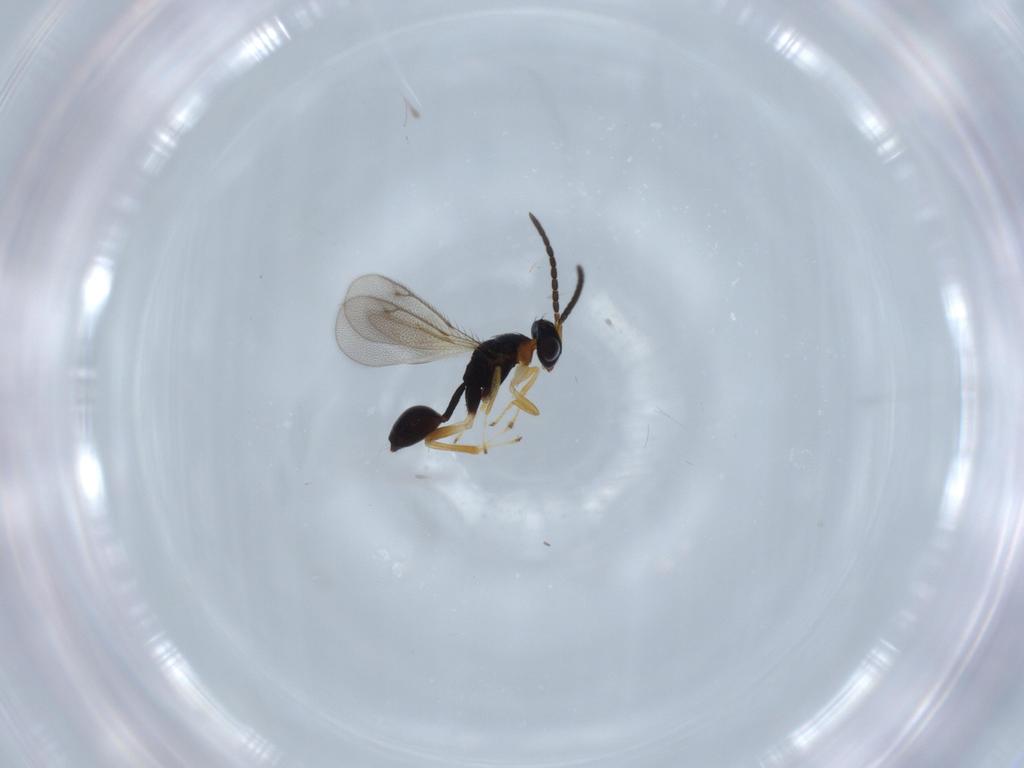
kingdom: Animalia
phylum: Arthropoda
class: Insecta
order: Hymenoptera
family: Diparidae
